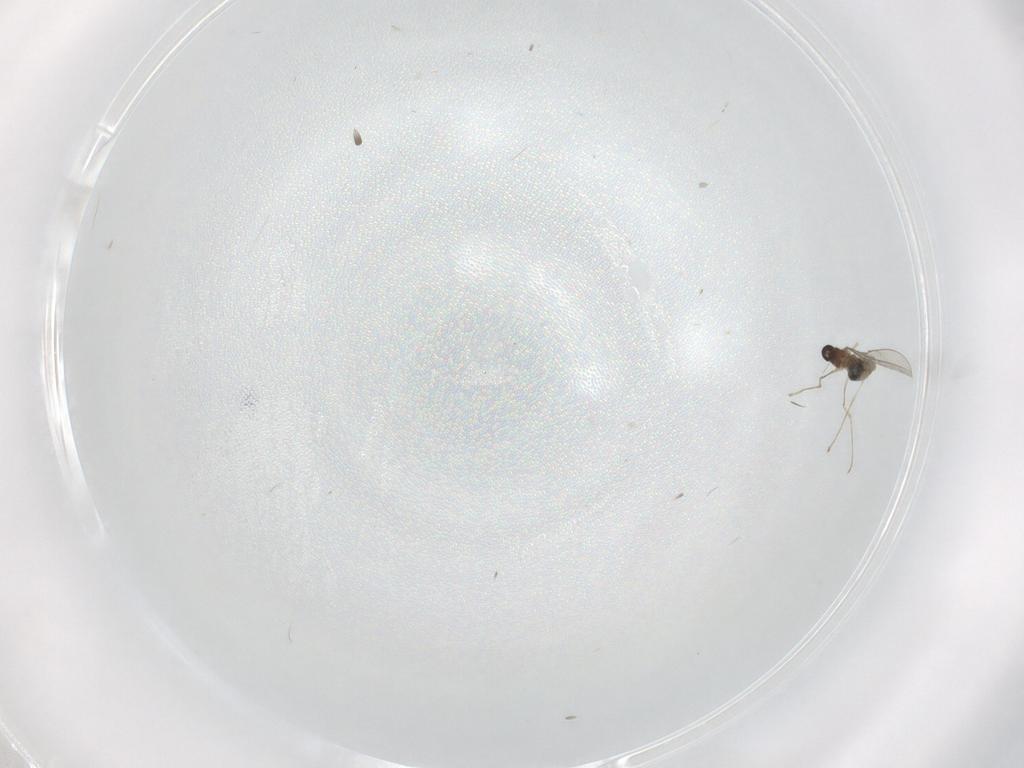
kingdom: Animalia
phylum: Arthropoda
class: Insecta
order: Diptera
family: Cecidomyiidae
